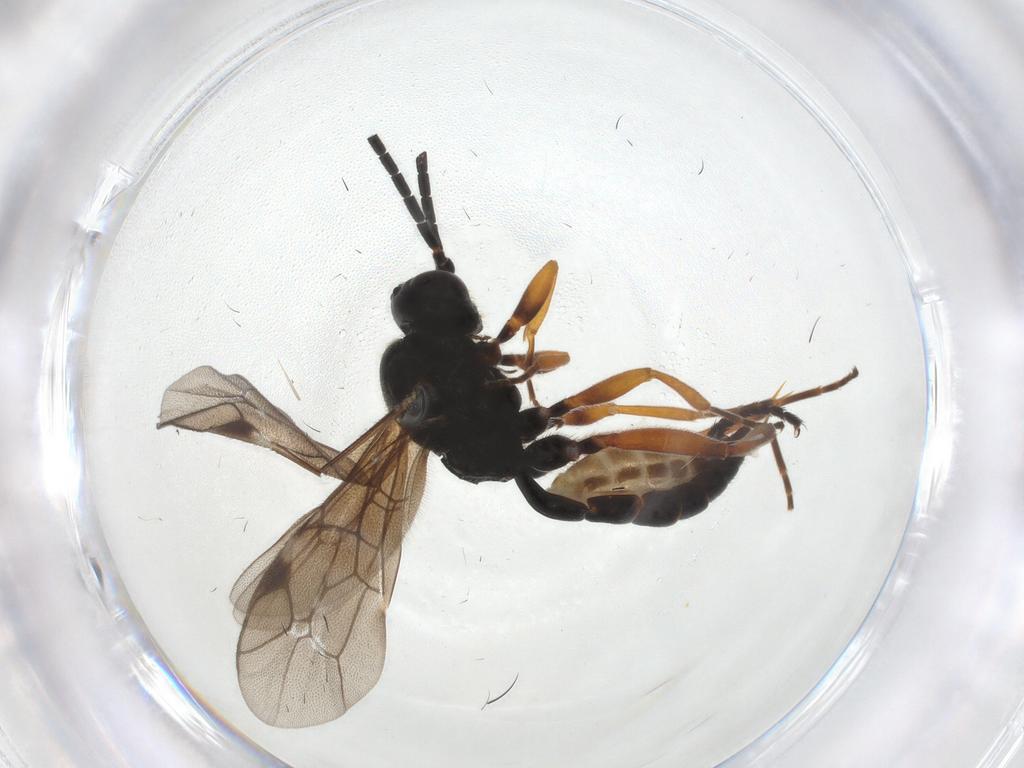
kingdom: Animalia
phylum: Arthropoda
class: Insecta
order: Hymenoptera
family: Ichneumonidae
